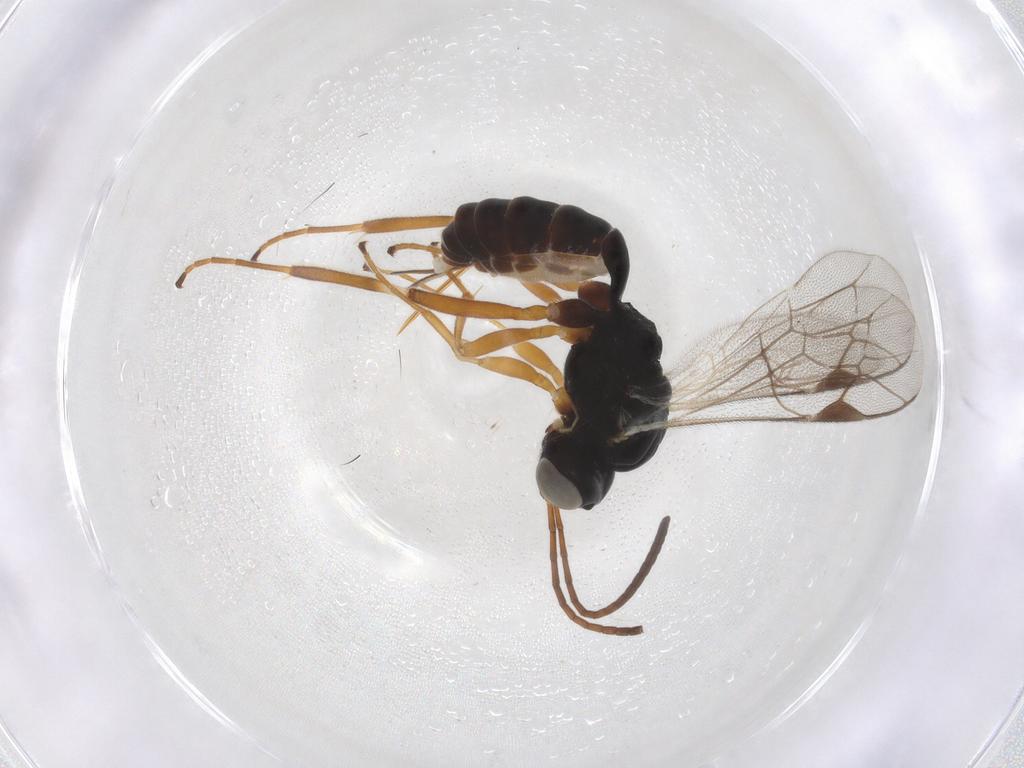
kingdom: Animalia
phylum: Arthropoda
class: Insecta
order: Hymenoptera
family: Ichneumonidae
